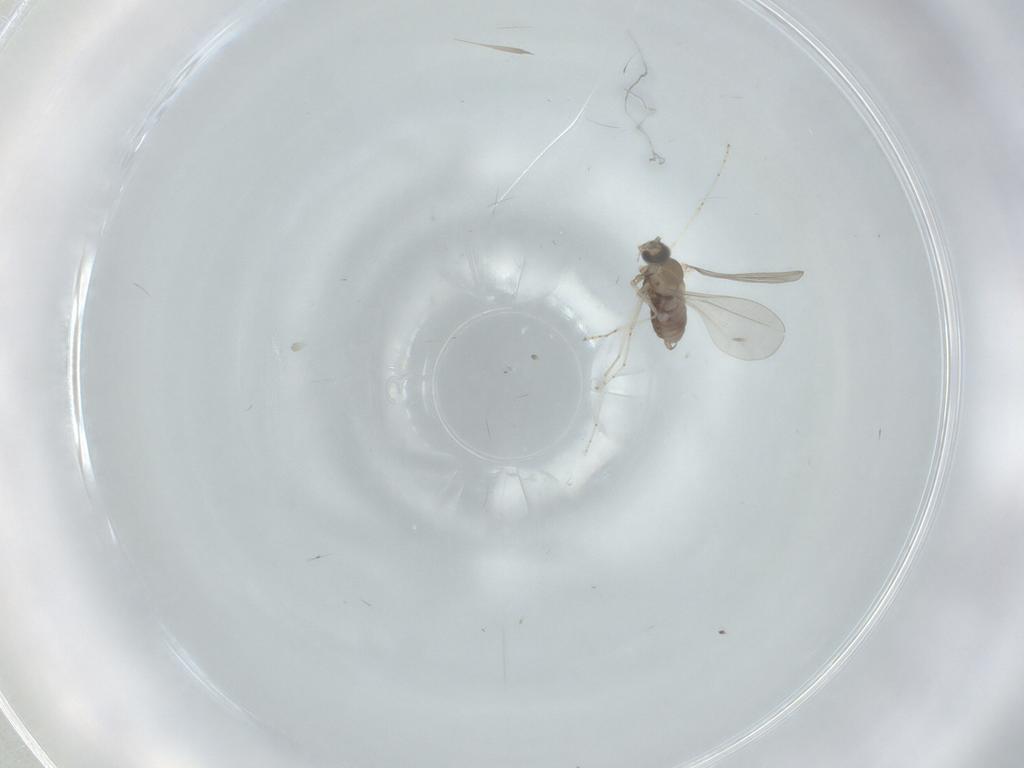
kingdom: Animalia
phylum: Arthropoda
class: Insecta
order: Diptera
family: Cecidomyiidae
